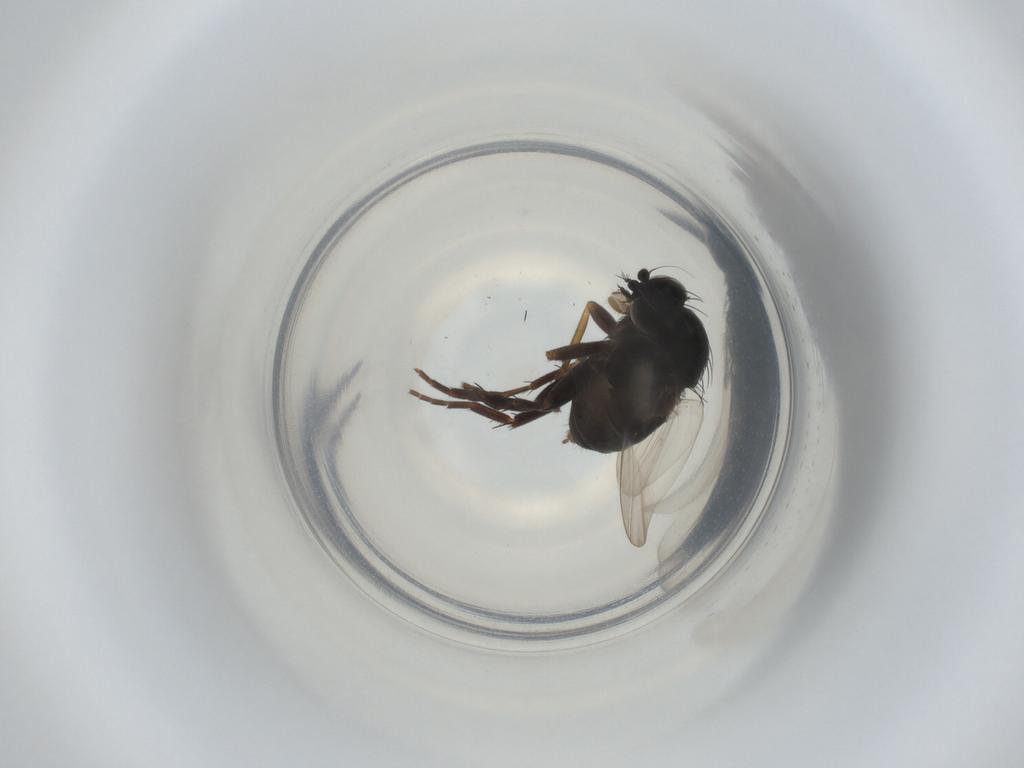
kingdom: Animalia
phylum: Arthropoda
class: Insecta
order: Diptera
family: Phoridae
